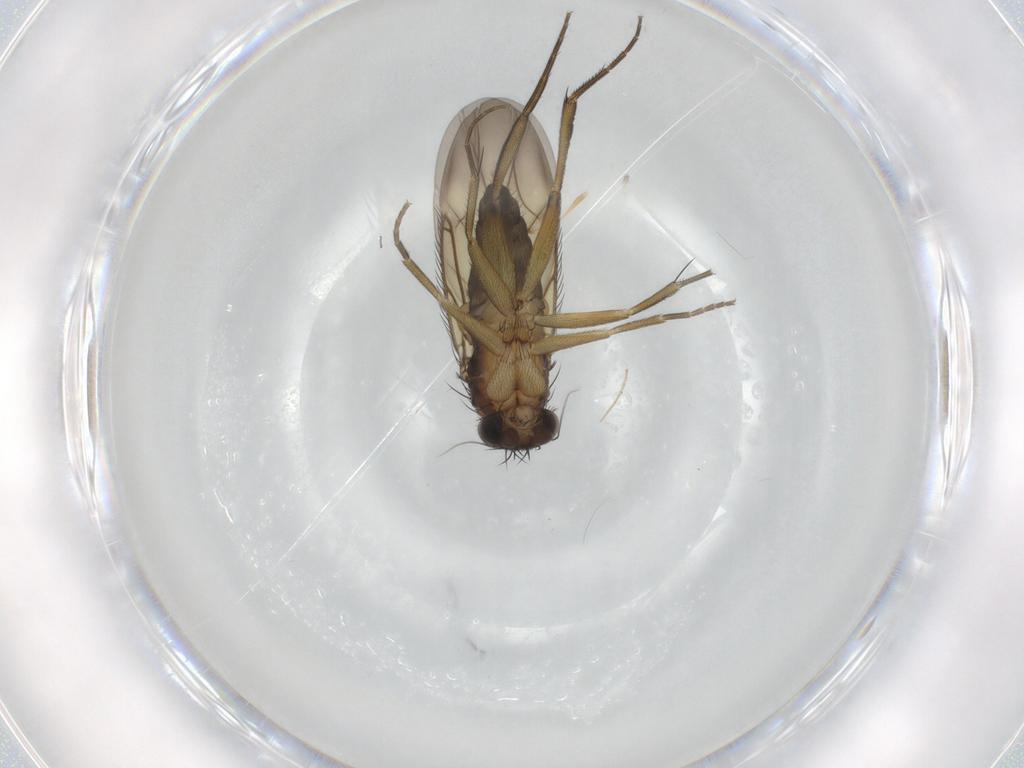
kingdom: Animalia
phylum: Arthropoda
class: Insecta
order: Diptera
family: Phoridae
